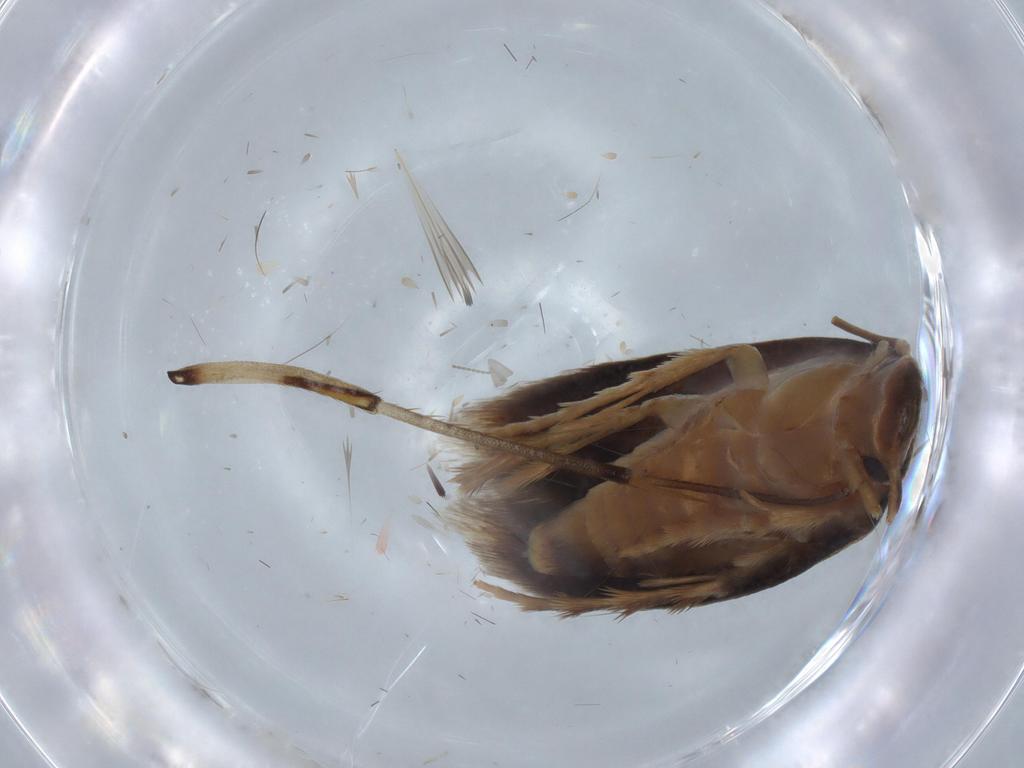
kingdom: Animalia
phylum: Arthropoda
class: Insecta
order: Lepidoptera
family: Tineidae
